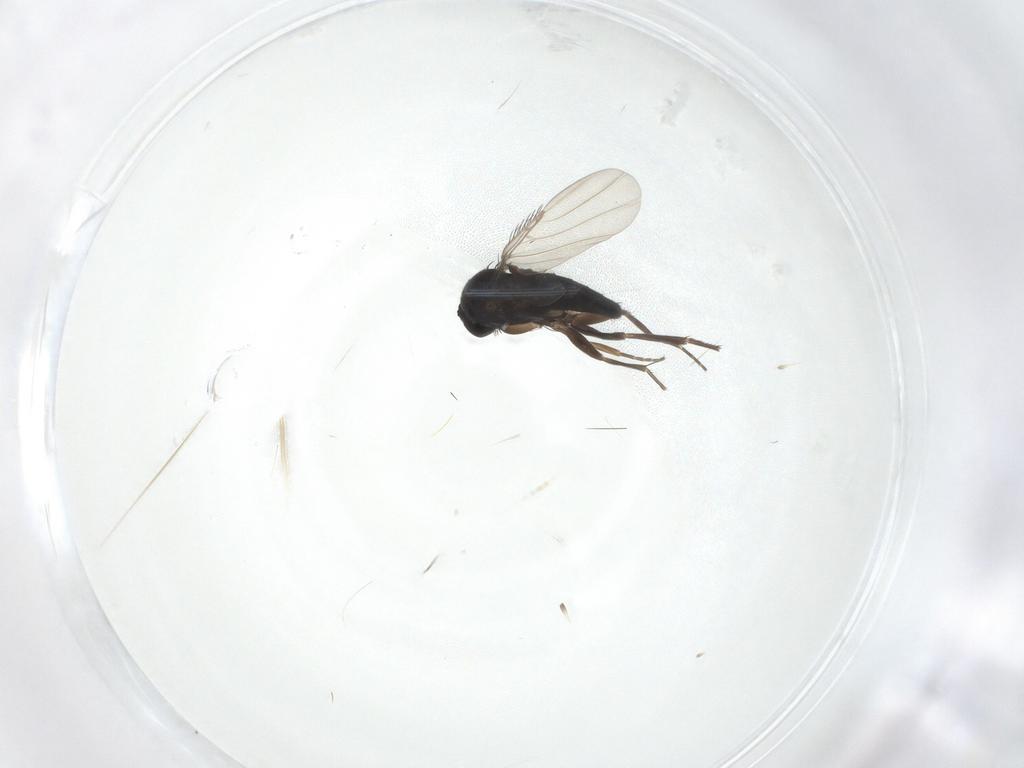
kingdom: Animalia
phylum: Arthropoda
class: Insecta
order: Diptera
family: Phoridae
